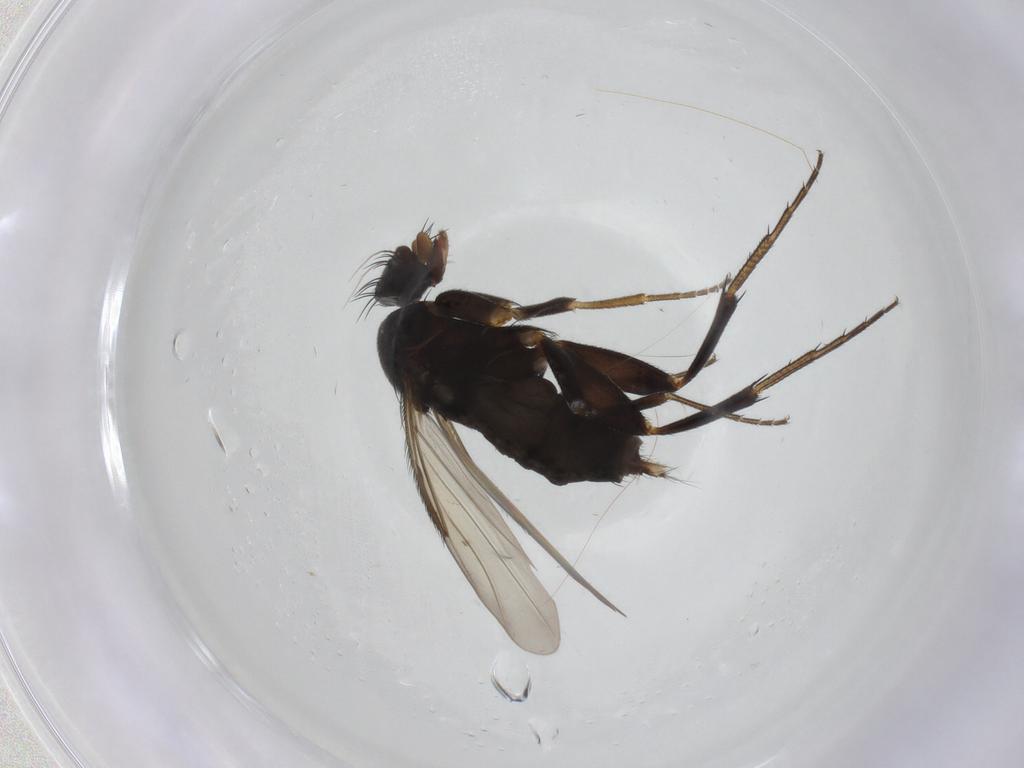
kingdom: Animalia
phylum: Arthropoda
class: Insecta
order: Diptera
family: Phoridae
